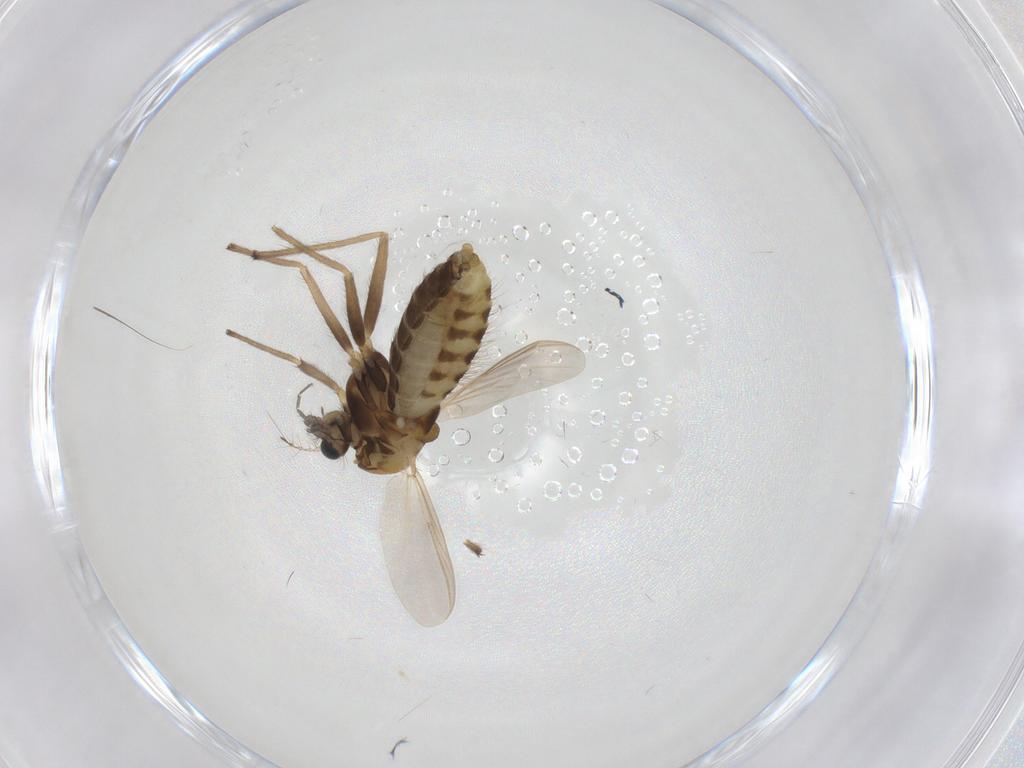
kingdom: Animalia
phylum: Arthropoda
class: Insecta
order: Diptera
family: Chironomidae
